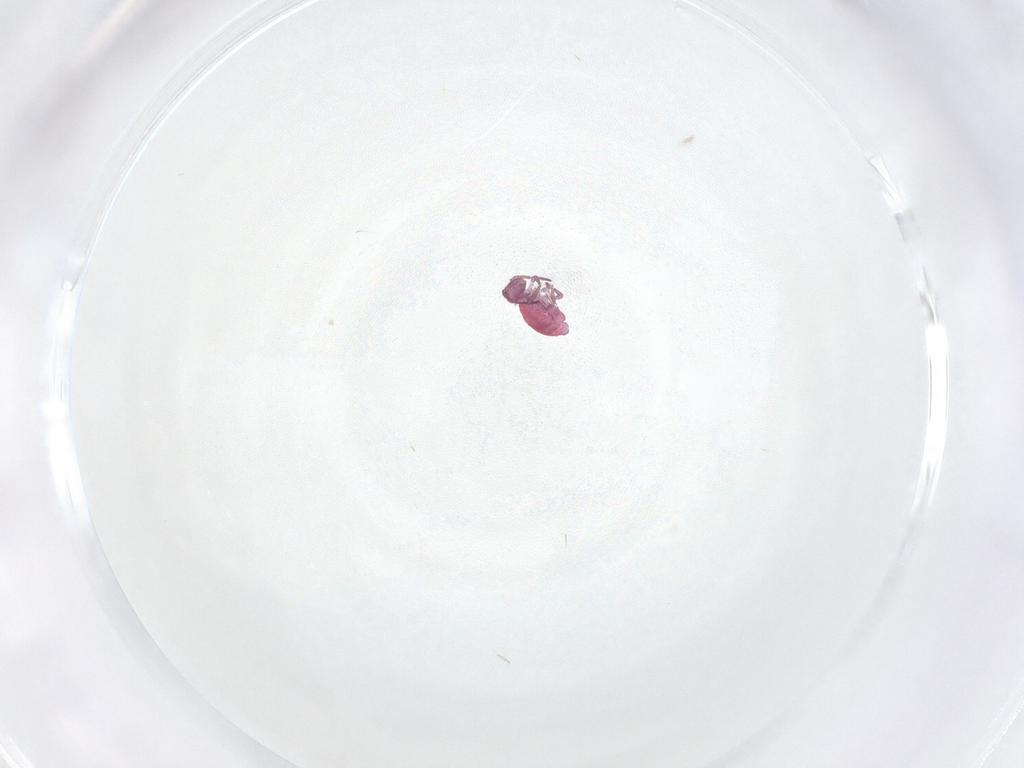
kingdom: Animalia
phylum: Arthropoda
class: Collembola
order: Symphypleona
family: Sminthuridae
